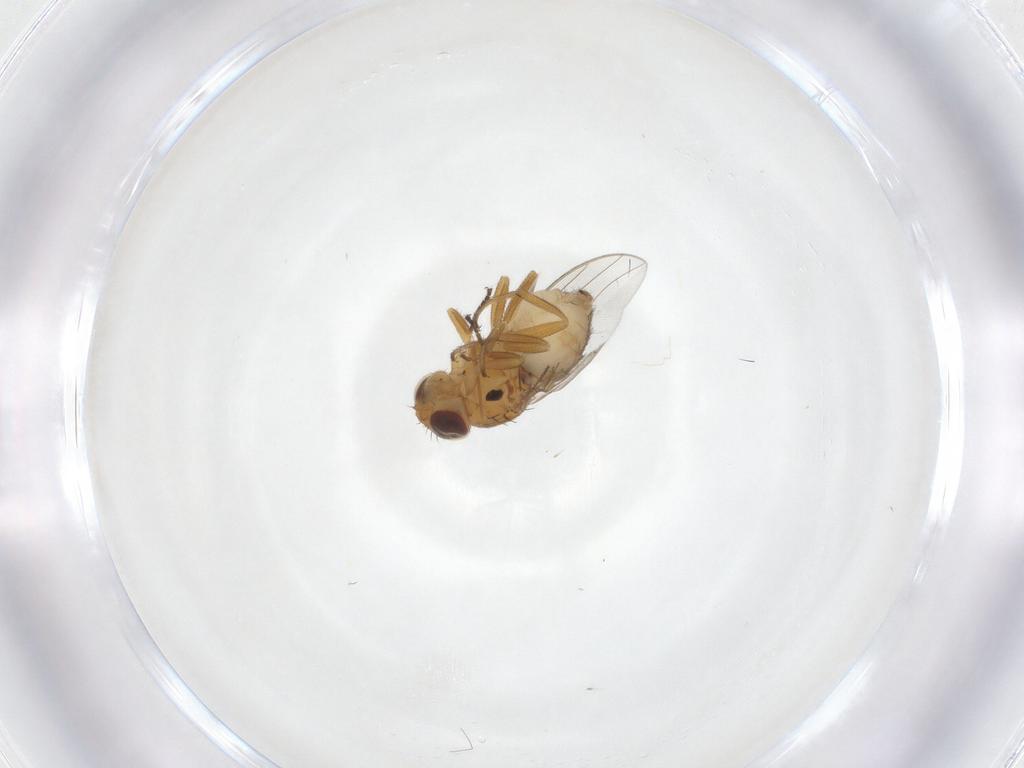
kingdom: Animalia
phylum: Arthropoda
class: Insecta
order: Diptera
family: Chloropidae
